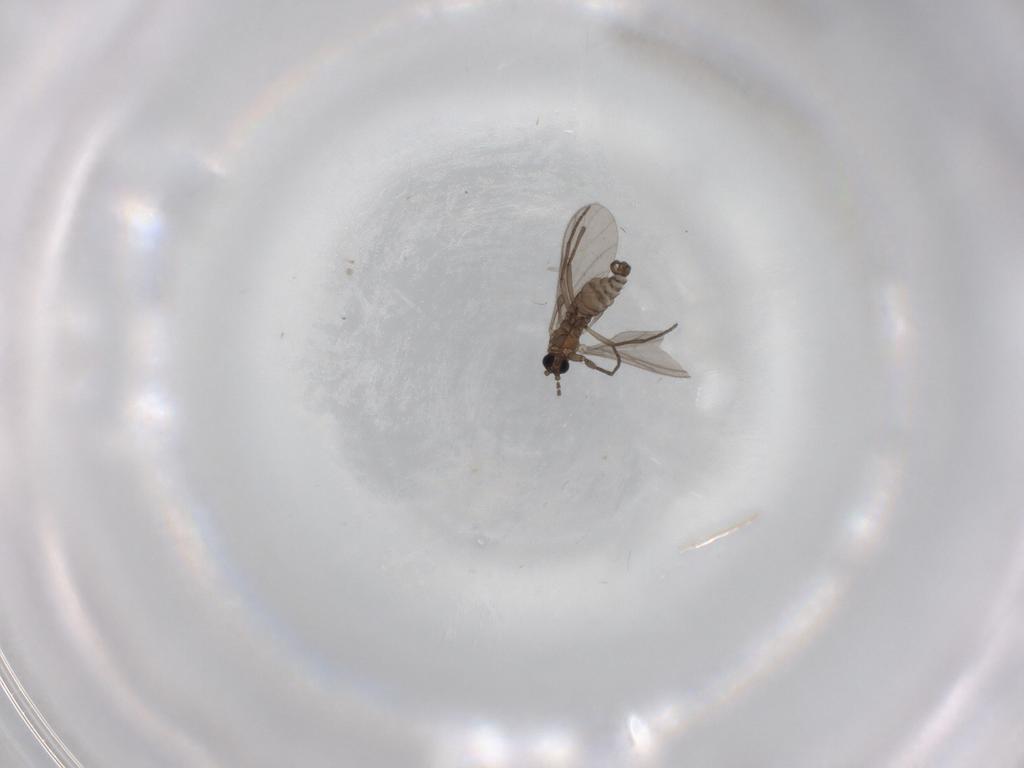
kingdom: Animalia
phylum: Arthropoda
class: Insecta
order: Diptera
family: Sciaridae
